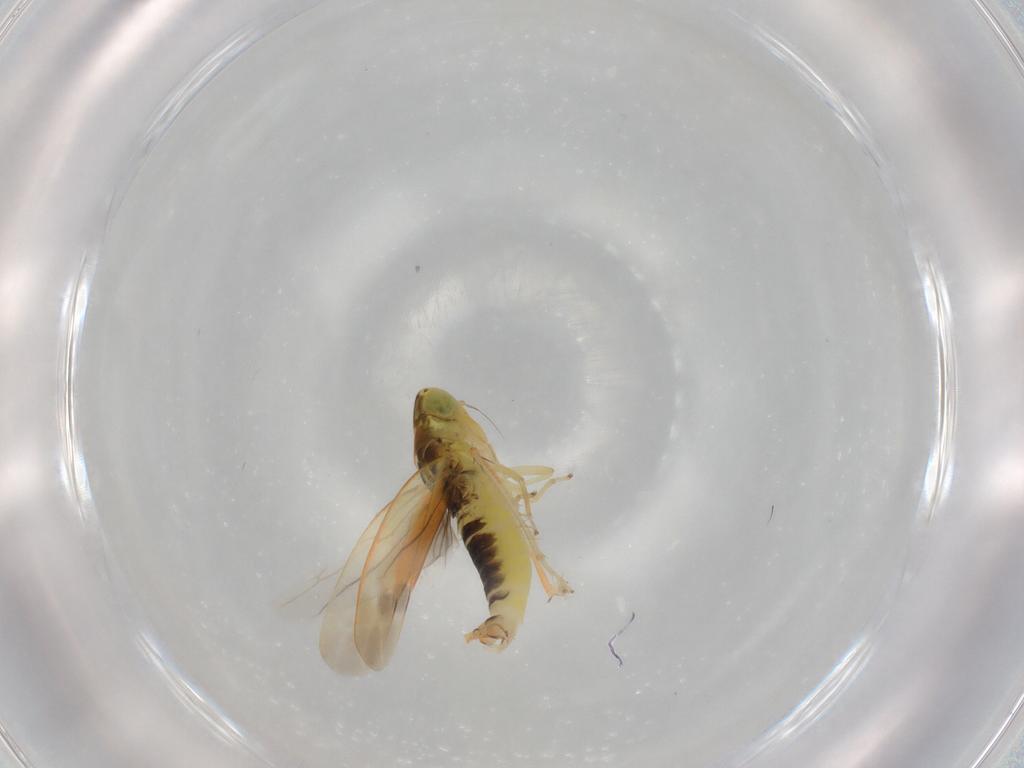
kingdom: Animalia
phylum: Arthropoda
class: Insecta
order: Hemiptera
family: Cicadellidae
